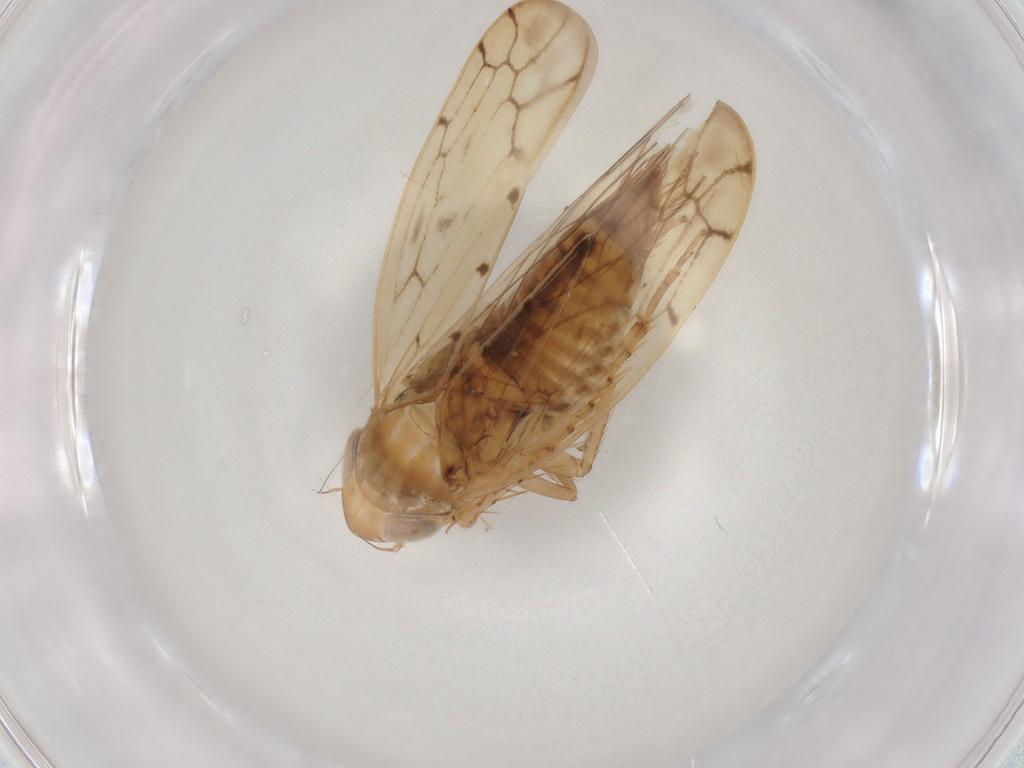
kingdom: Animalia
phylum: Arthropoda
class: Insecta
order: Hemiptera
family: Cicadellidae
